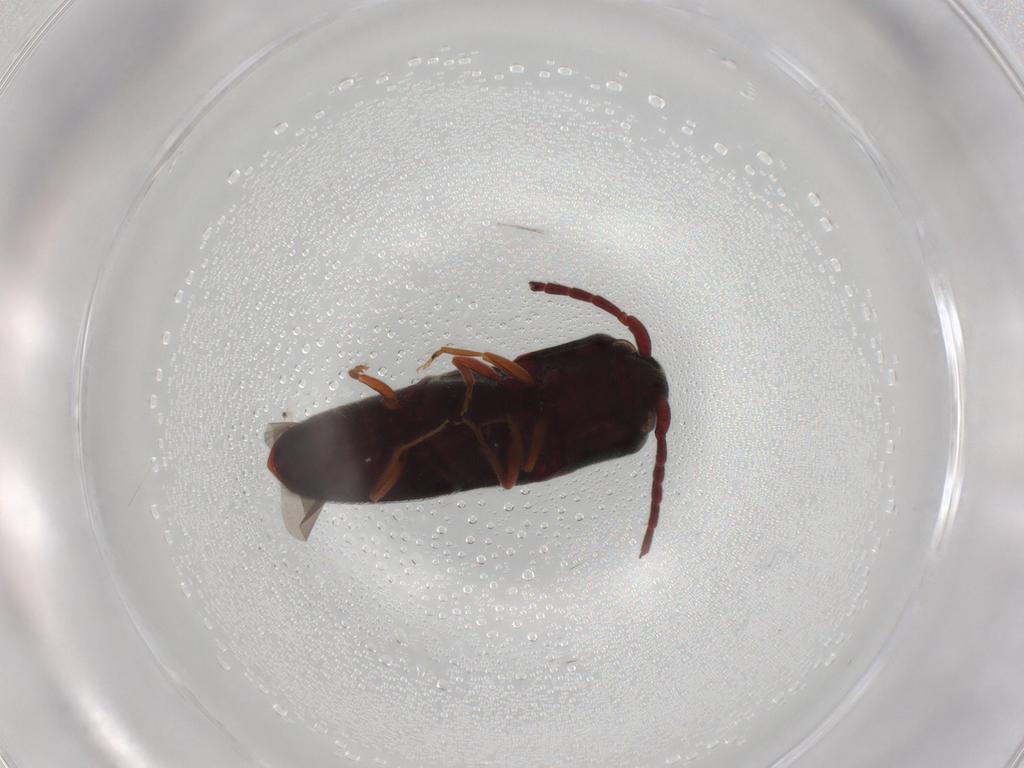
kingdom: Animalia
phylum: Arthropoda
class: Insecta
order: Coleoptera
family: Eucnemidae
